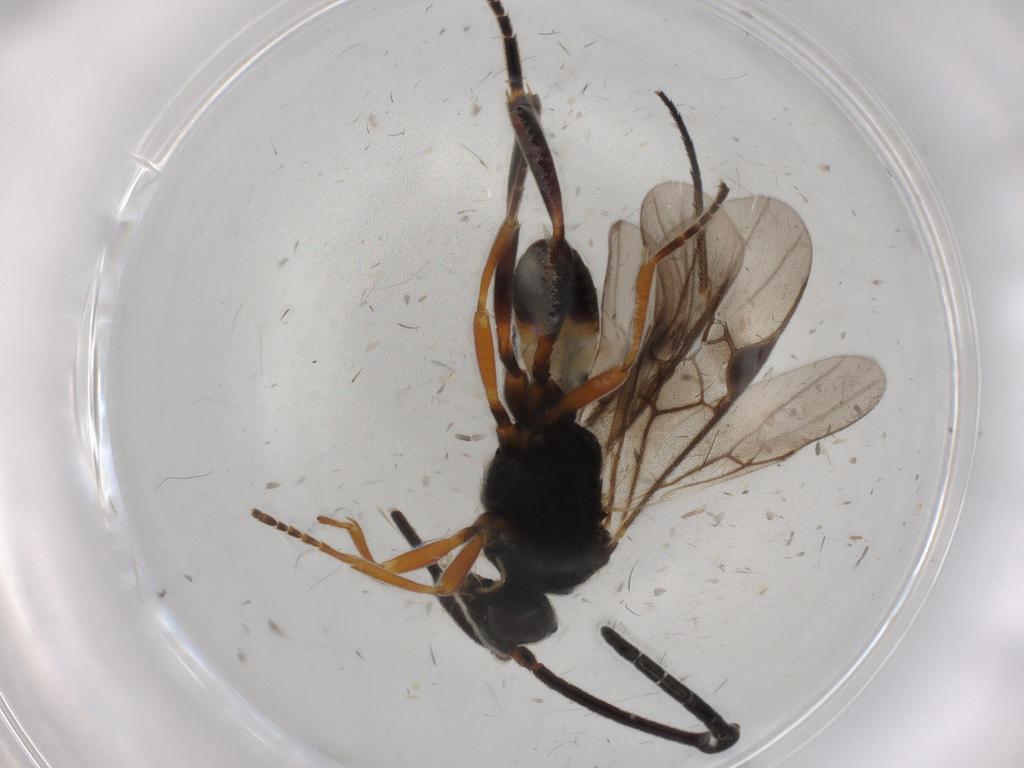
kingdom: Animalia
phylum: Arthropoda
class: Insecta
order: Hymenoptera
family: Braconidae
